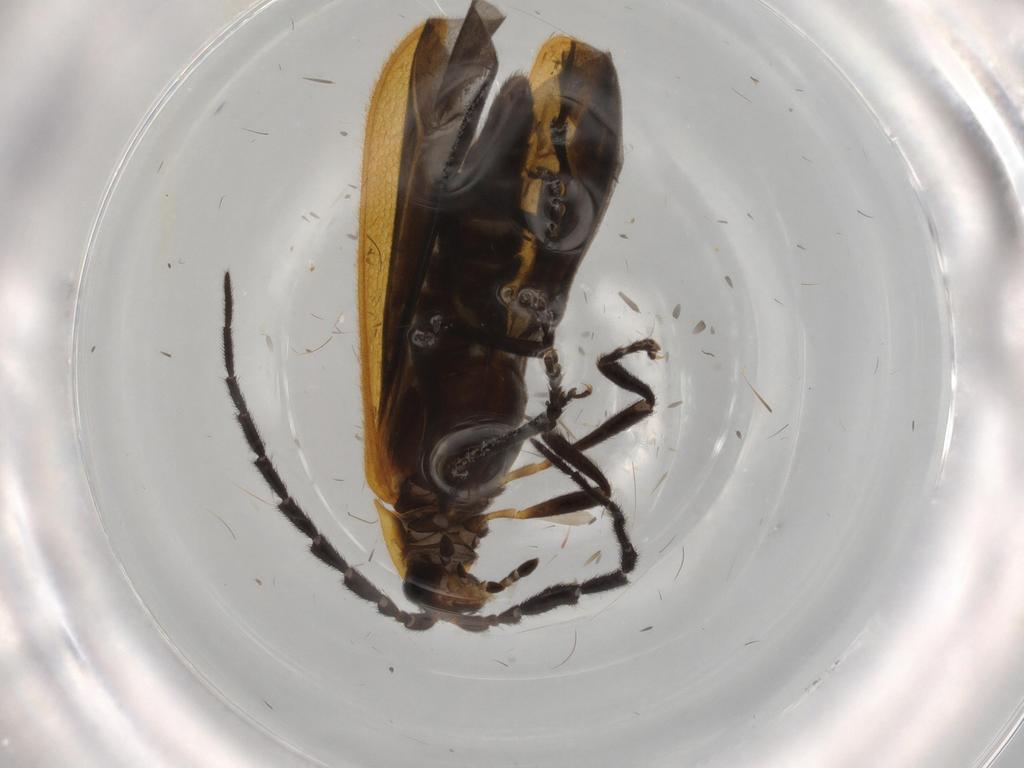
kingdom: Animalia
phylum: Arthropoda
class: Insecta
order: Coleoptera
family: Lycidae
